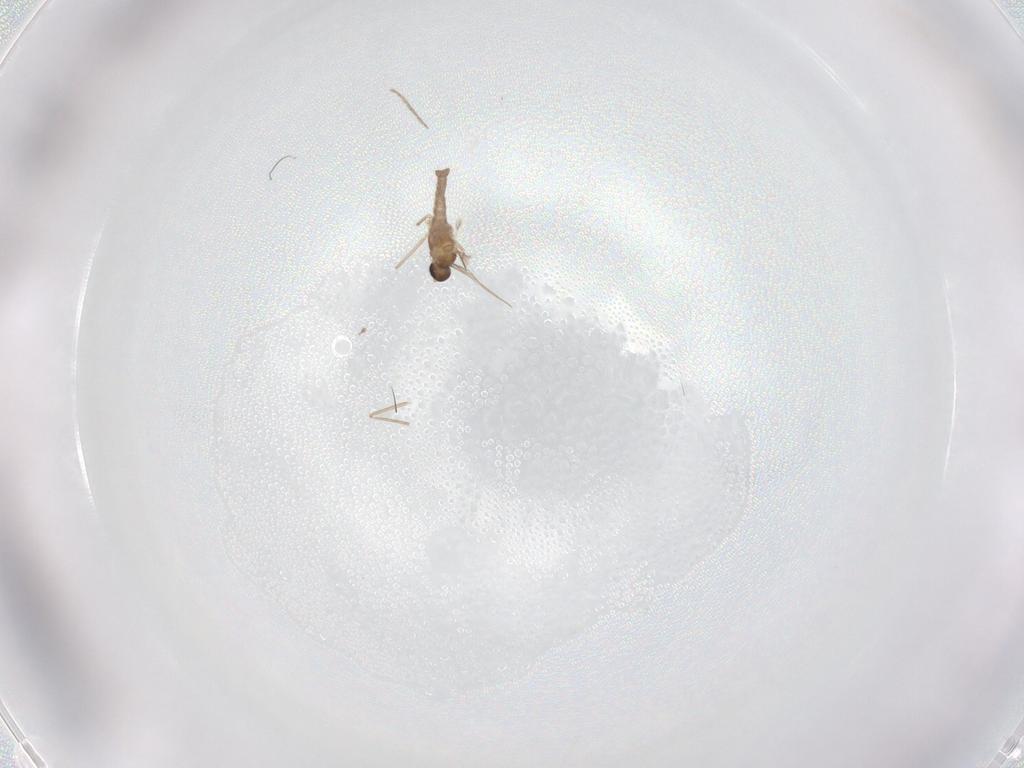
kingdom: Animalia
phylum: Arthropoda
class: Insecta
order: Diptera
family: Cecidomyiidae
